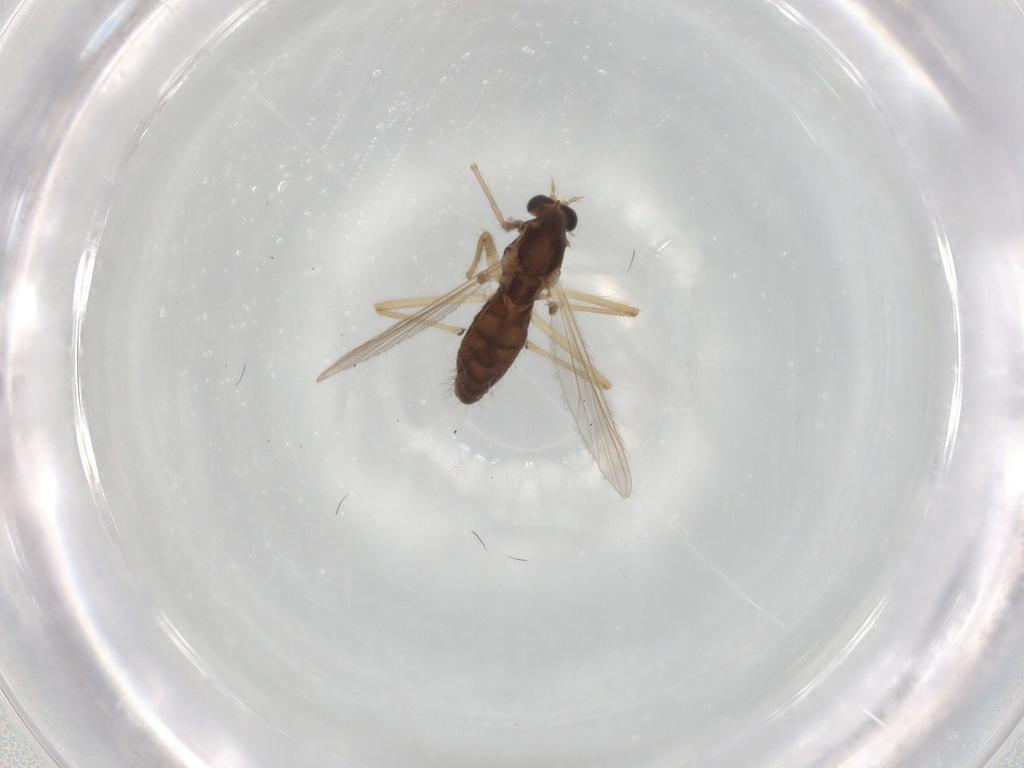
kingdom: Animalia
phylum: Arthropoda
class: Insecta
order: Diptera
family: Chironomidae
